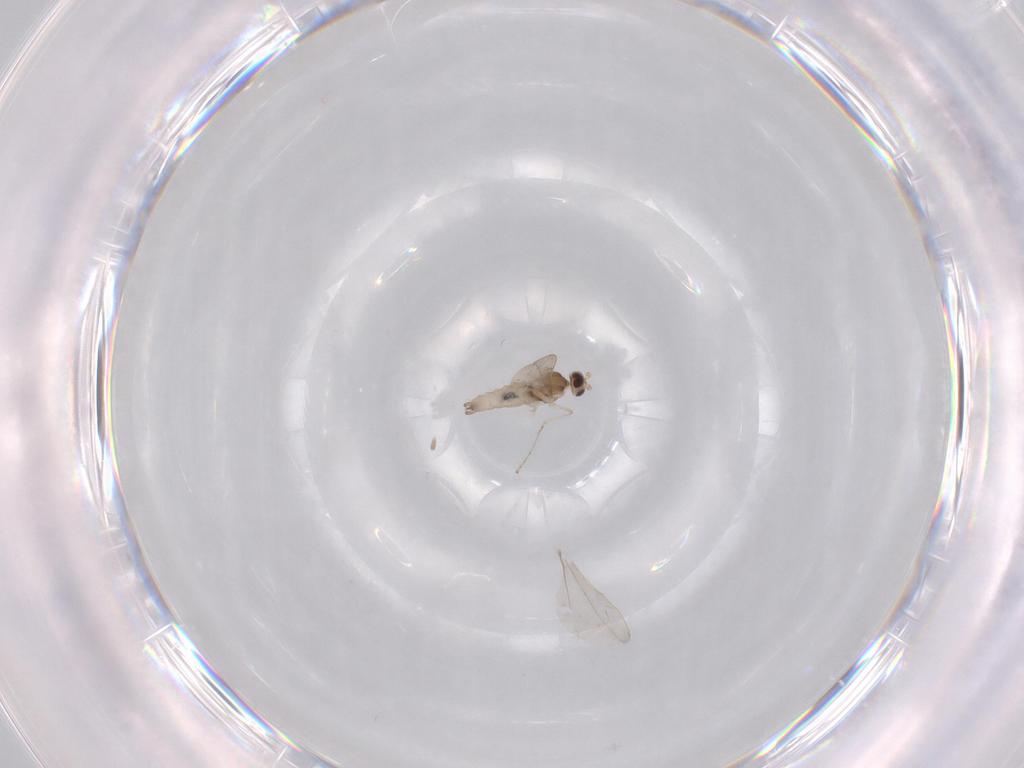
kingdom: Animalia
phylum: Arthropoda
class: Insecta
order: Diptera
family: Cecidomyiidae
